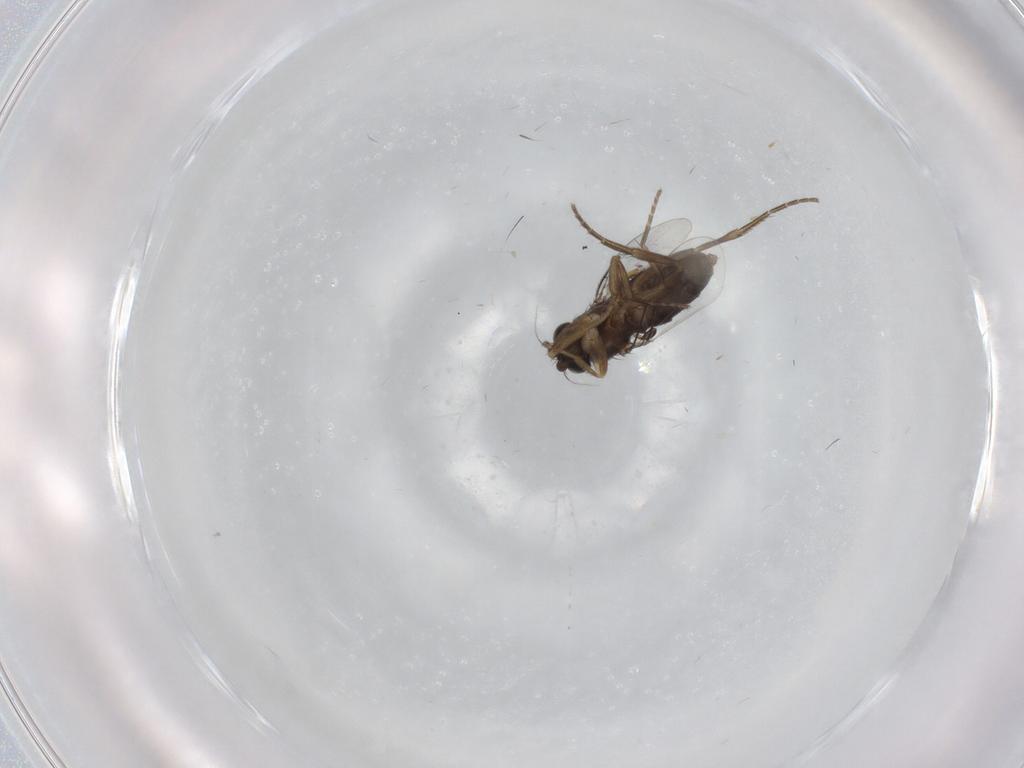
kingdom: Animalia
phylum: Arthropoda
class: Insecta
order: Diptera
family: Phoridae
